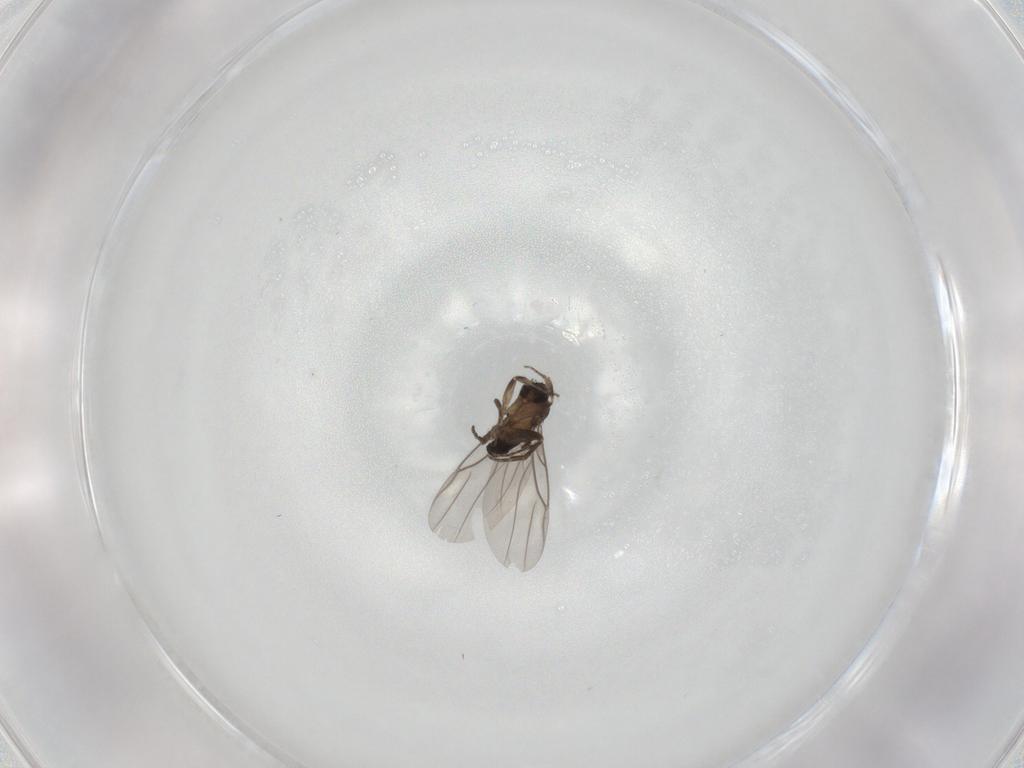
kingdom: Animalia
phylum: Arthropoda
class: Insecta
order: Diptera
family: Phoridae
